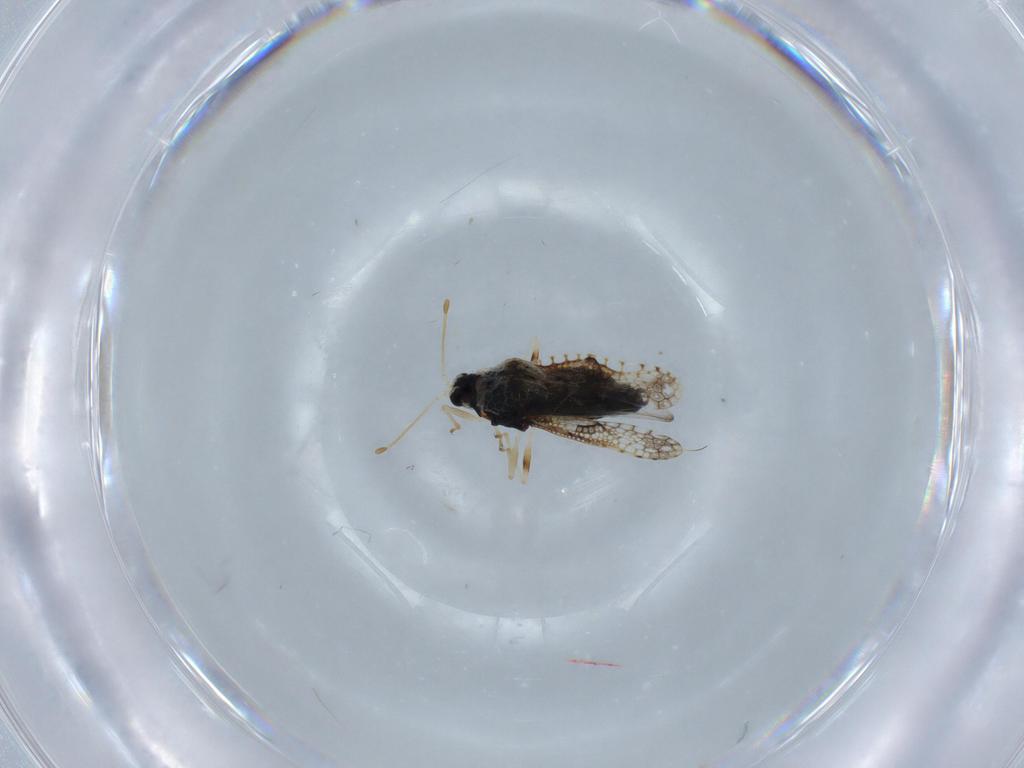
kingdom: Animalia
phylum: Arthropoda
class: Insecta
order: Hemiptera
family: Tingidae
